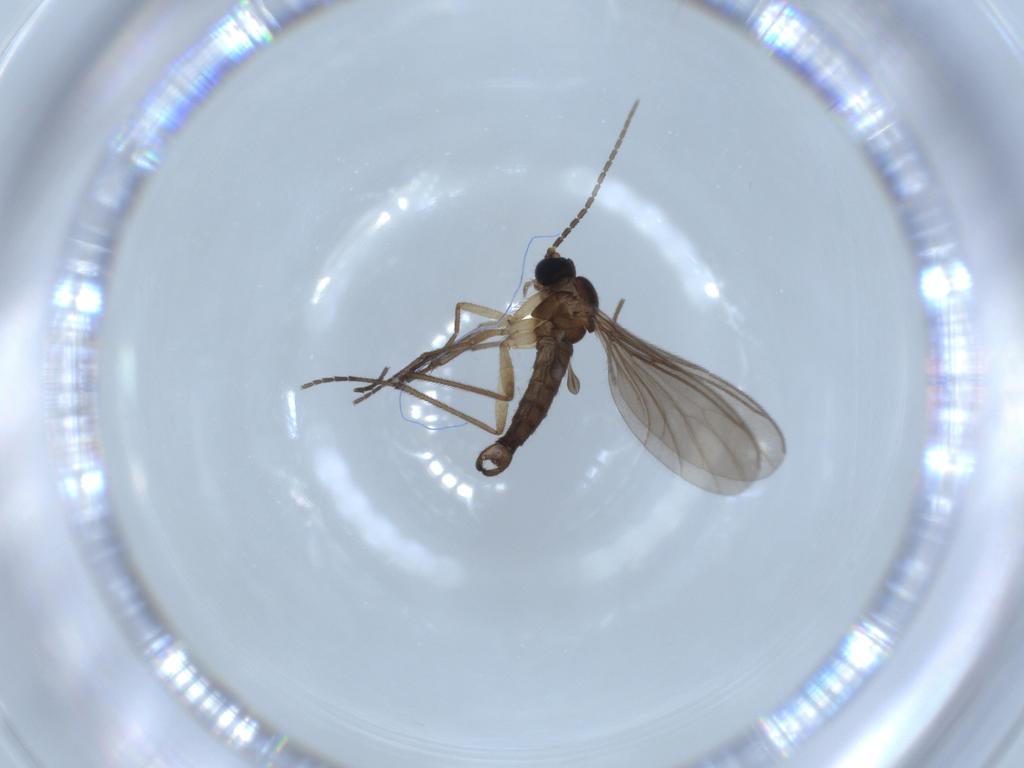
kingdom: Animalia
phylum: Arthropoda
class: Insecta
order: Diptera
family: Sciaridae
